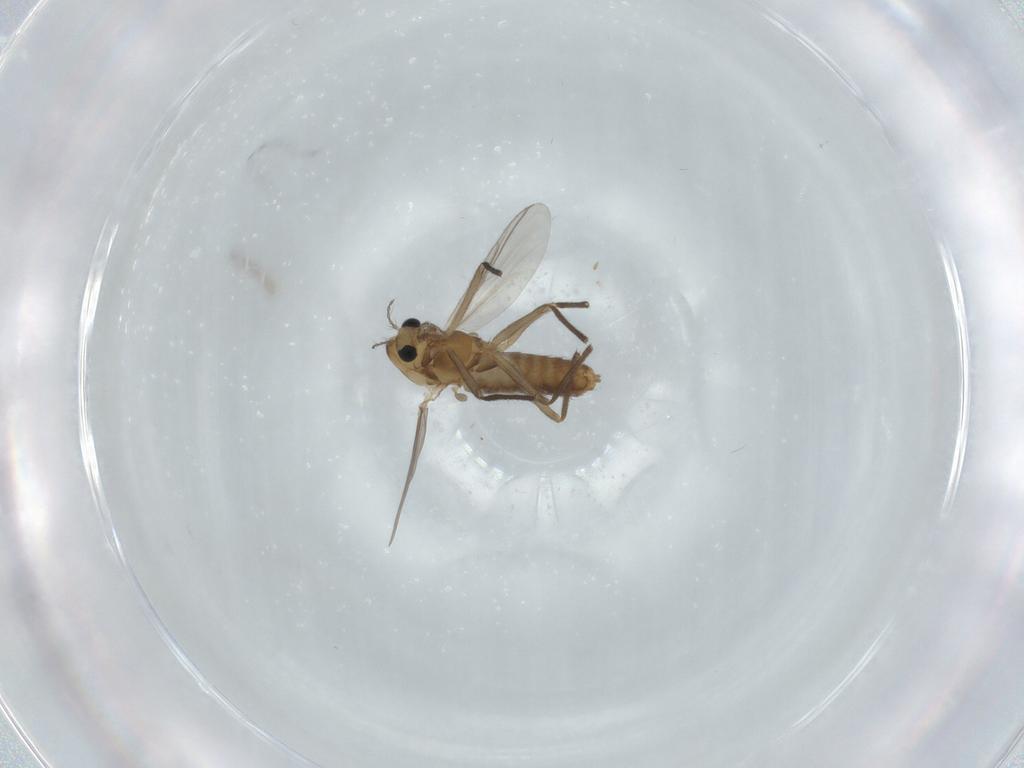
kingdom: Animalia
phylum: Arthropoda
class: Insecta
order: Diptera
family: Chironomidae
